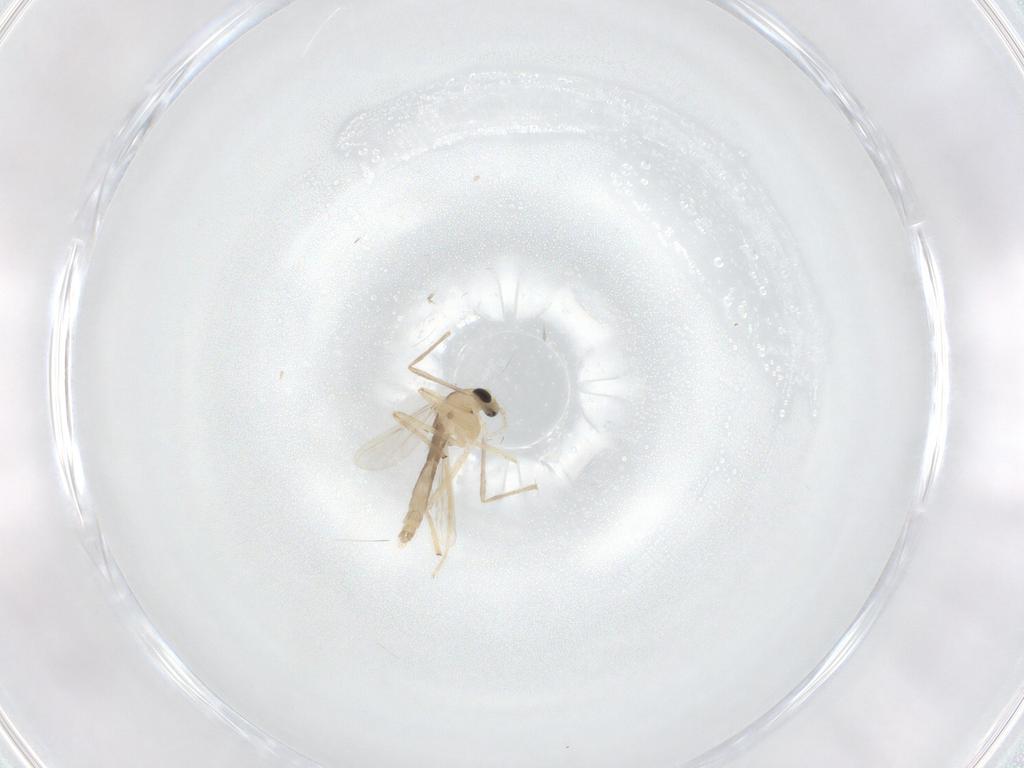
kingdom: Animalia
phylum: Arthropoda
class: Insecta
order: Diptera
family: Chironomidae
